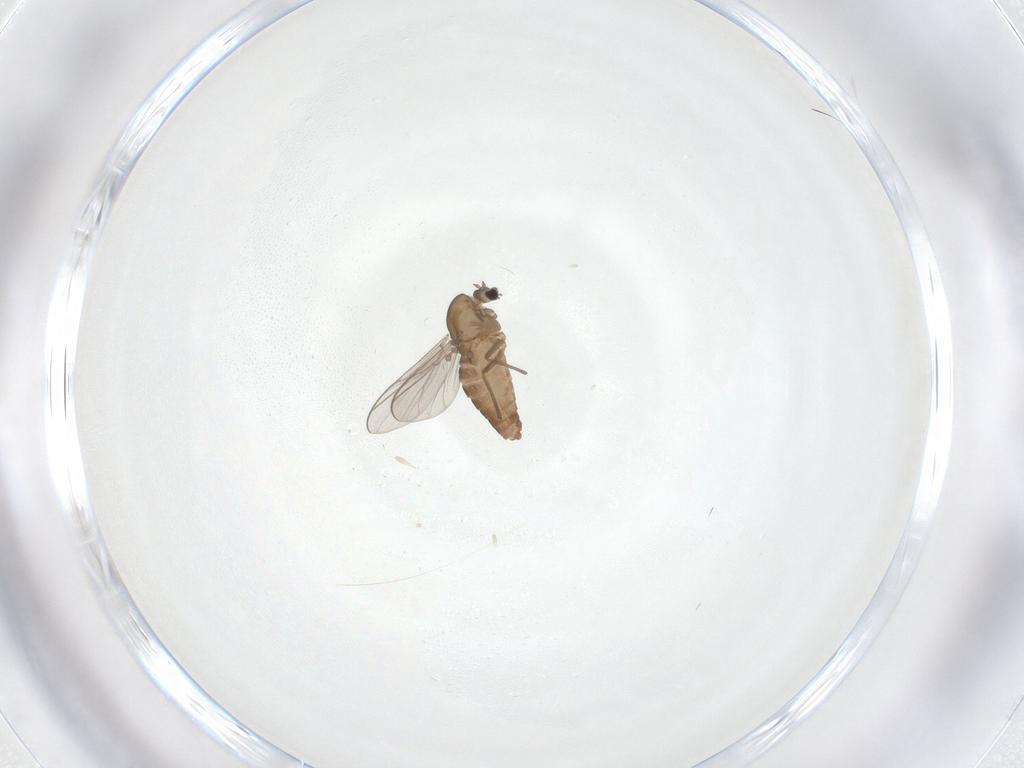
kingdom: Animalia
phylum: Arthropoda
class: Insecta
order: Diptera
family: Chironomidae
